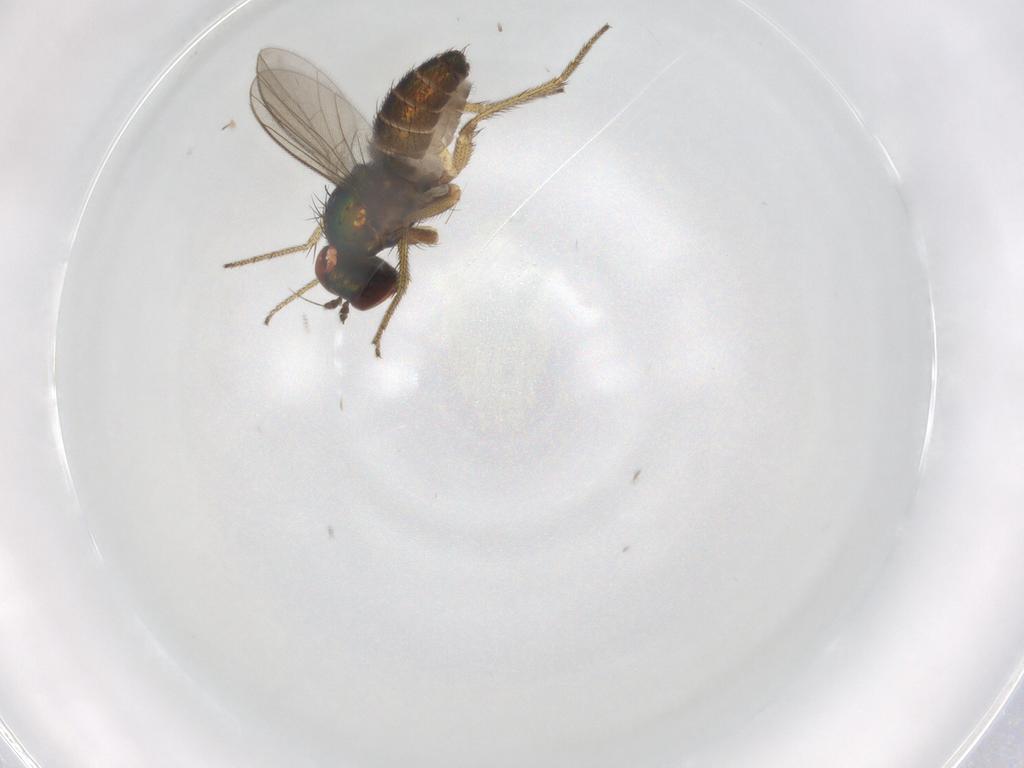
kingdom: Animalia
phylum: Arthropoda
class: Insecta
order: Diptera
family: Micropezidae
